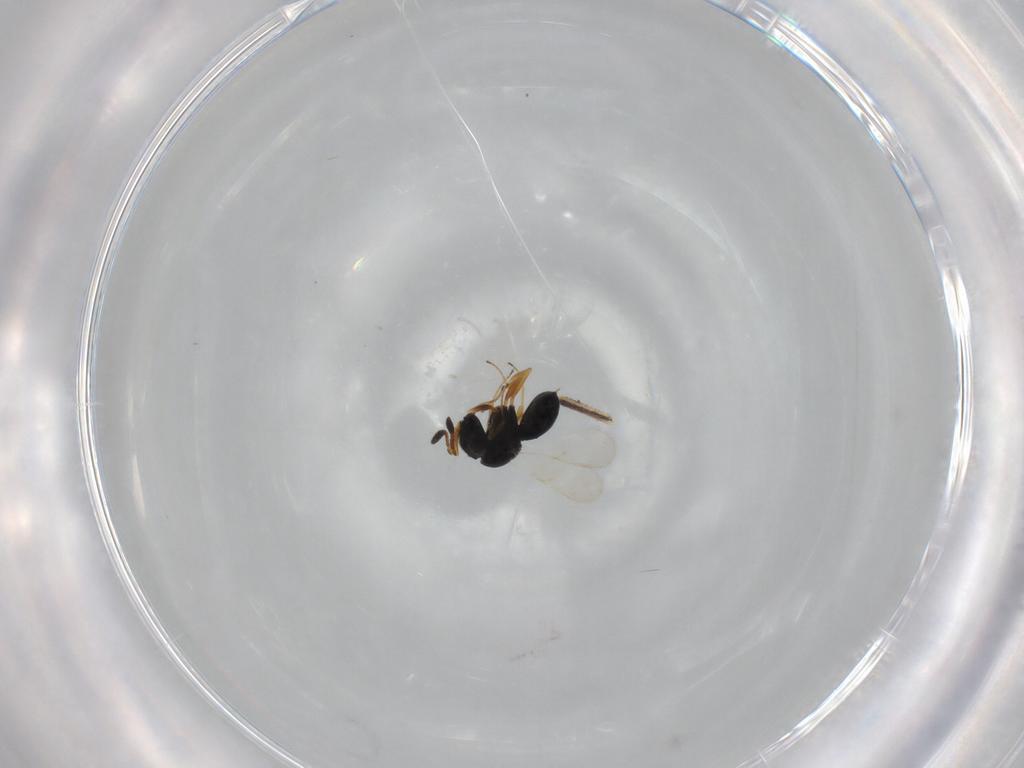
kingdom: Animalia
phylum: Arthropoda
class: Insecta
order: Hymenoptera
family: Scelionidae
